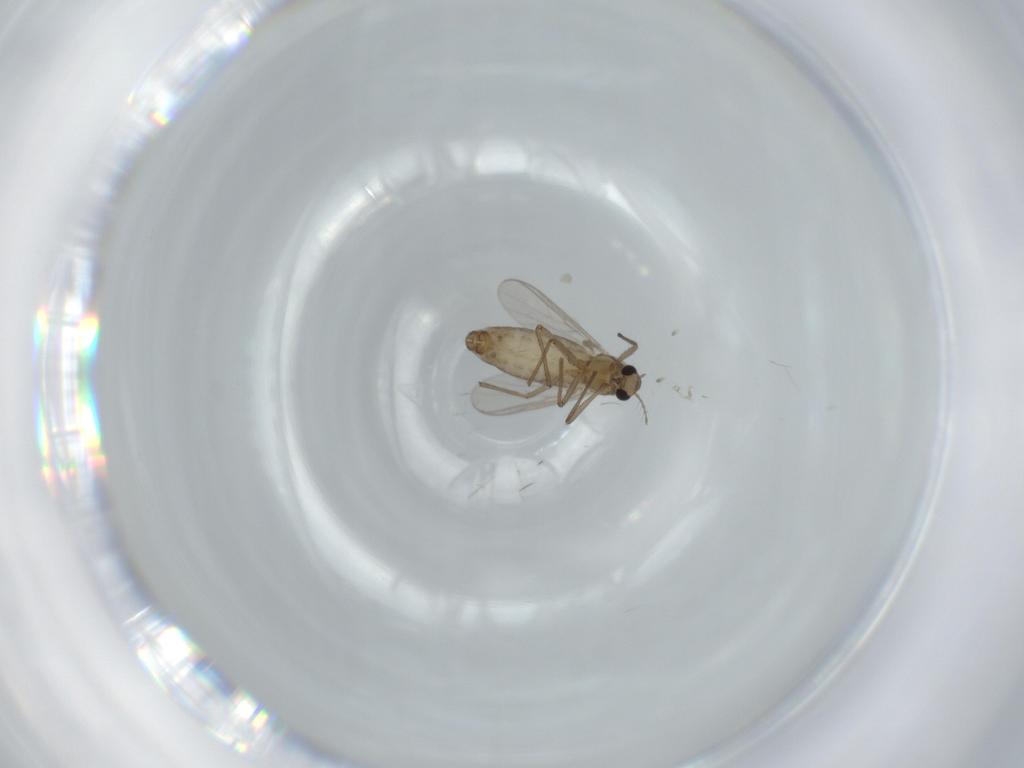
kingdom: Animalia
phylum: Arthropoda
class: Insecta
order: Diptera
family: Chironomidae
